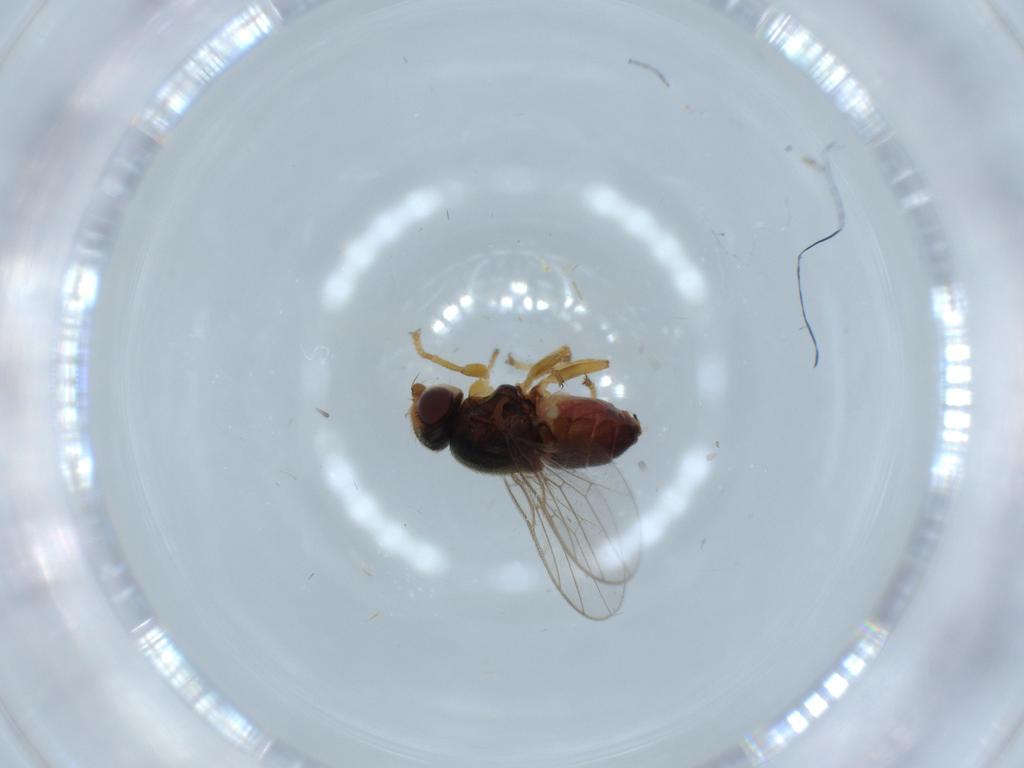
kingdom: Animalia
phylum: Arthropoda
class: Insecta
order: Diptera
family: Chloropidae
